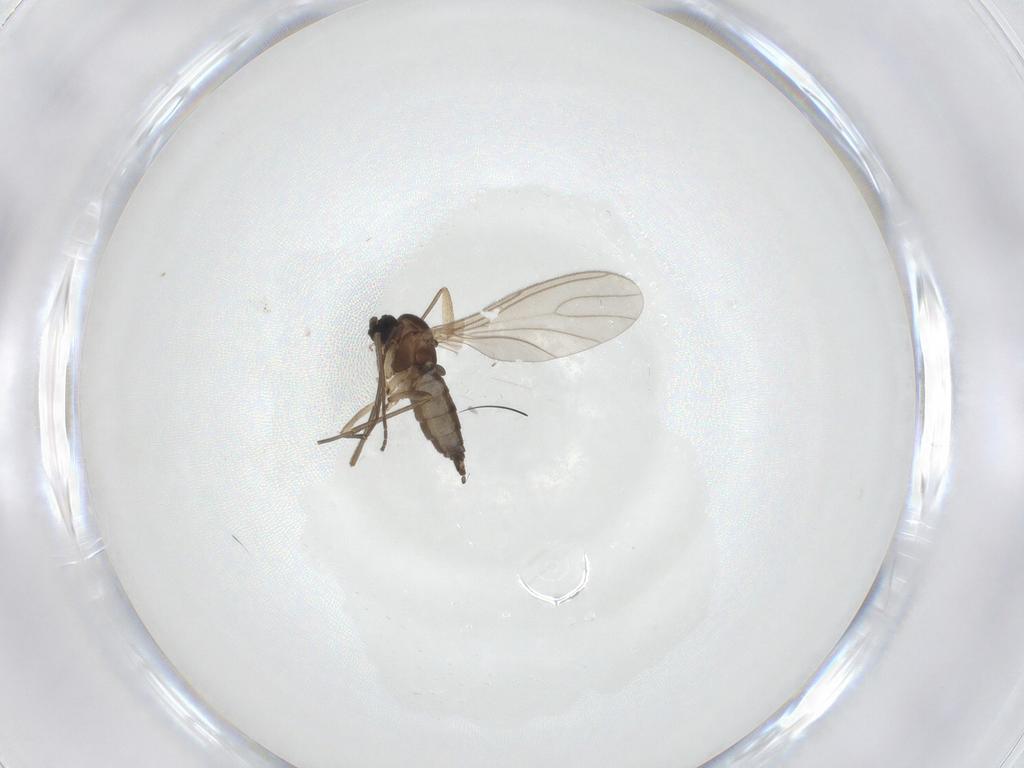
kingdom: Animalia
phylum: Arthropoda
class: Insecta
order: Diptera
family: Sciaridae
